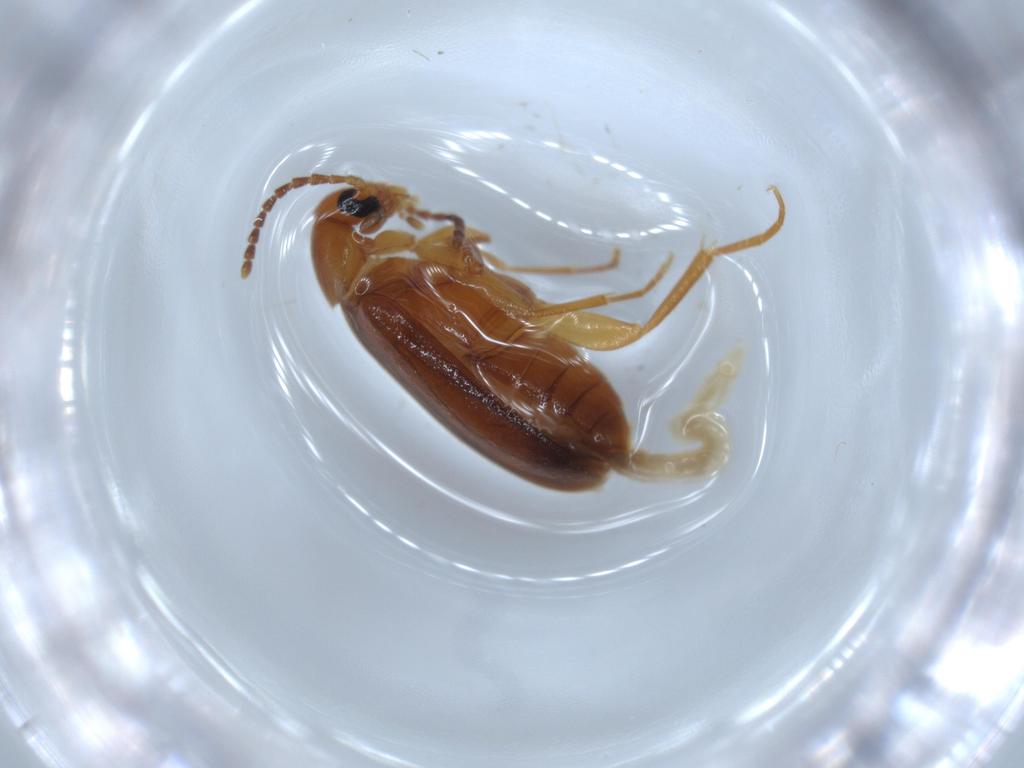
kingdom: Animalia
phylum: Arthropoda
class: Insecta
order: Coleoptera
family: Scraptiidae
